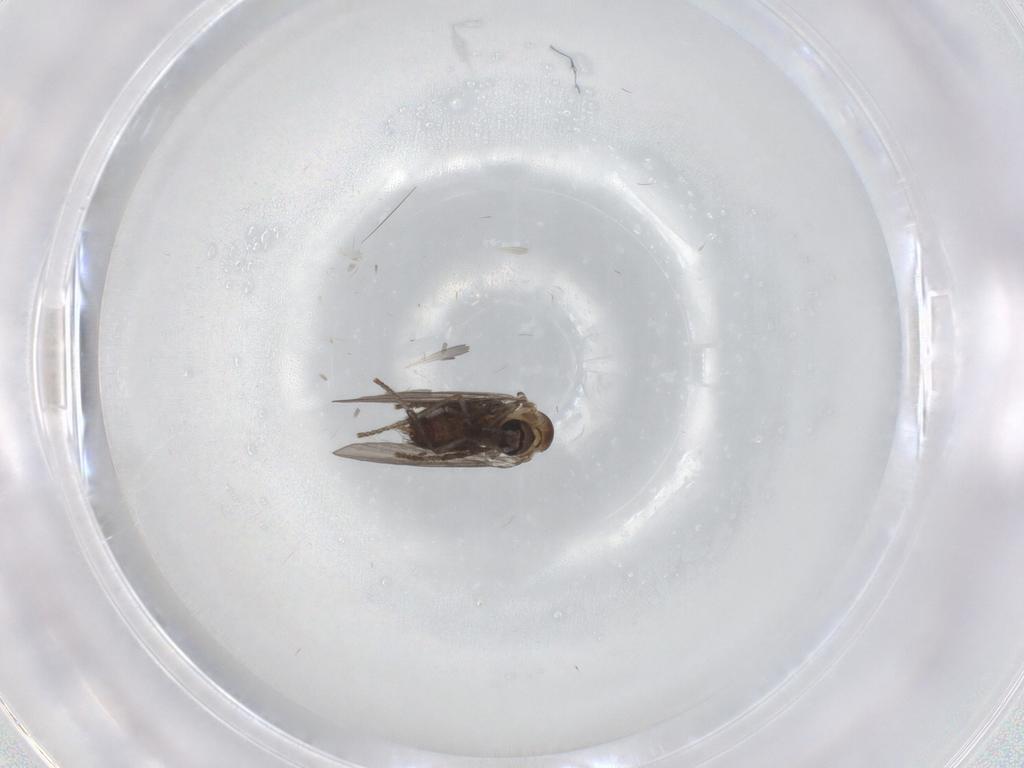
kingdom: Animalia
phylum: Arthropoda
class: Insecta
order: Diptera
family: Psychodidae
